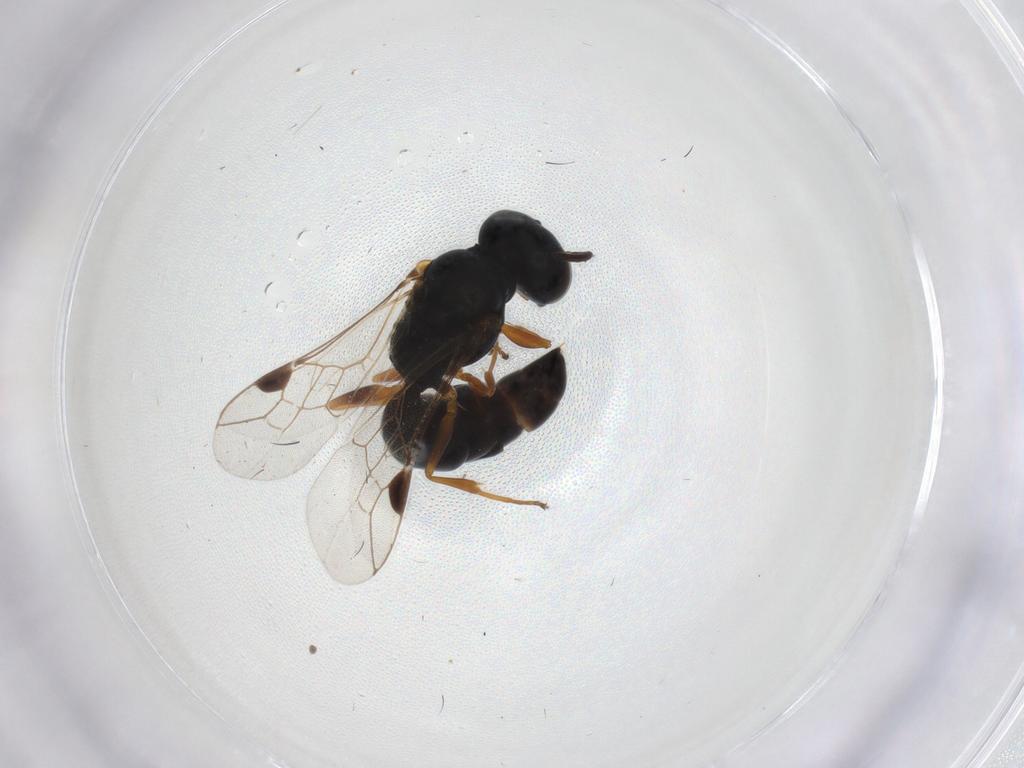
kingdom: Animalia
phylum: Arthropoda
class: Insecta
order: Hymenoptera
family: Pemphredonidae
